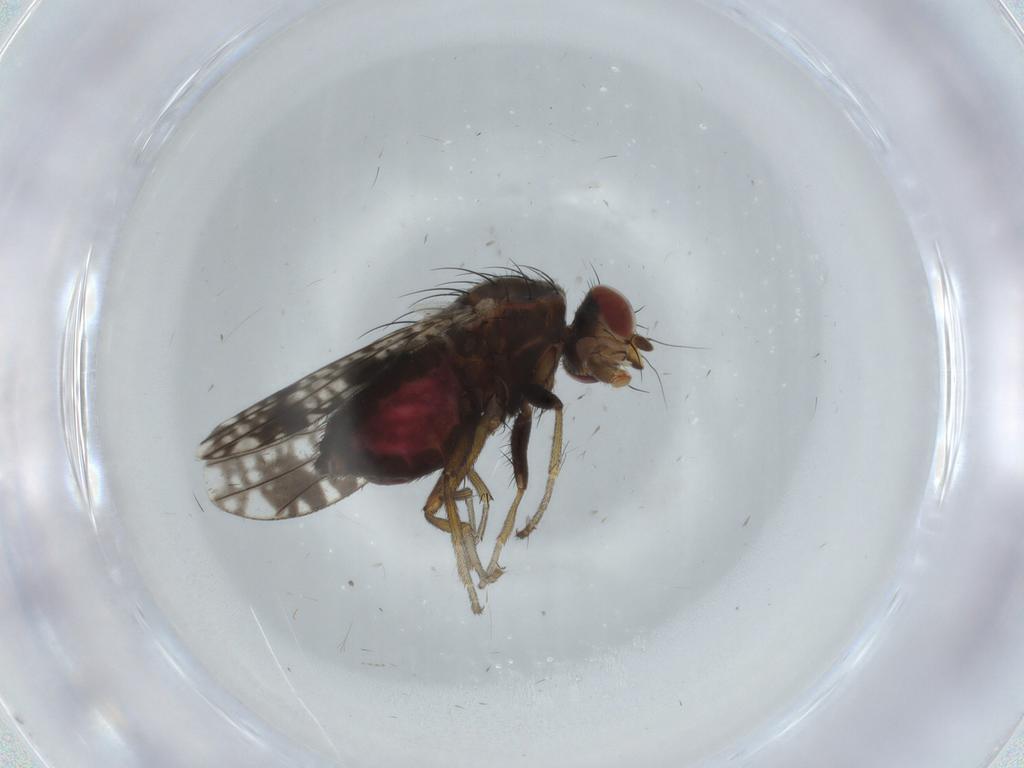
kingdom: Animalia
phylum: Arthropoda
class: Insecta
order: Diptera
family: Tephritidae
